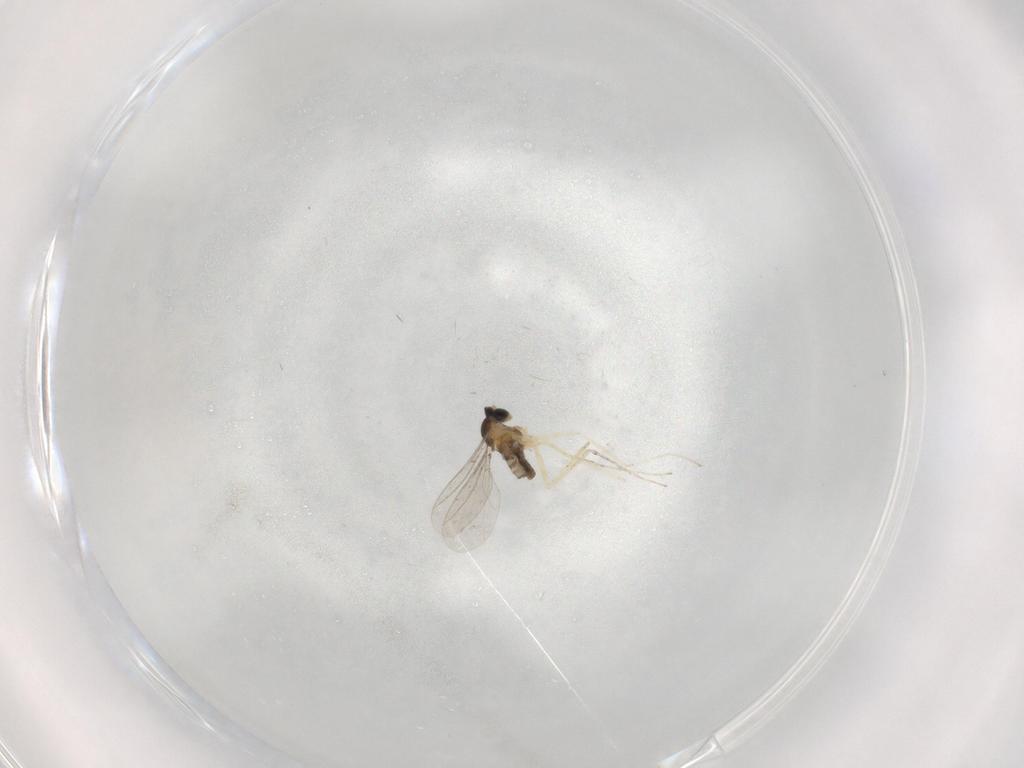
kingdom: Animalia
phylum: Arthropoda
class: Insecta
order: Diptera
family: Cecidomyiidae
